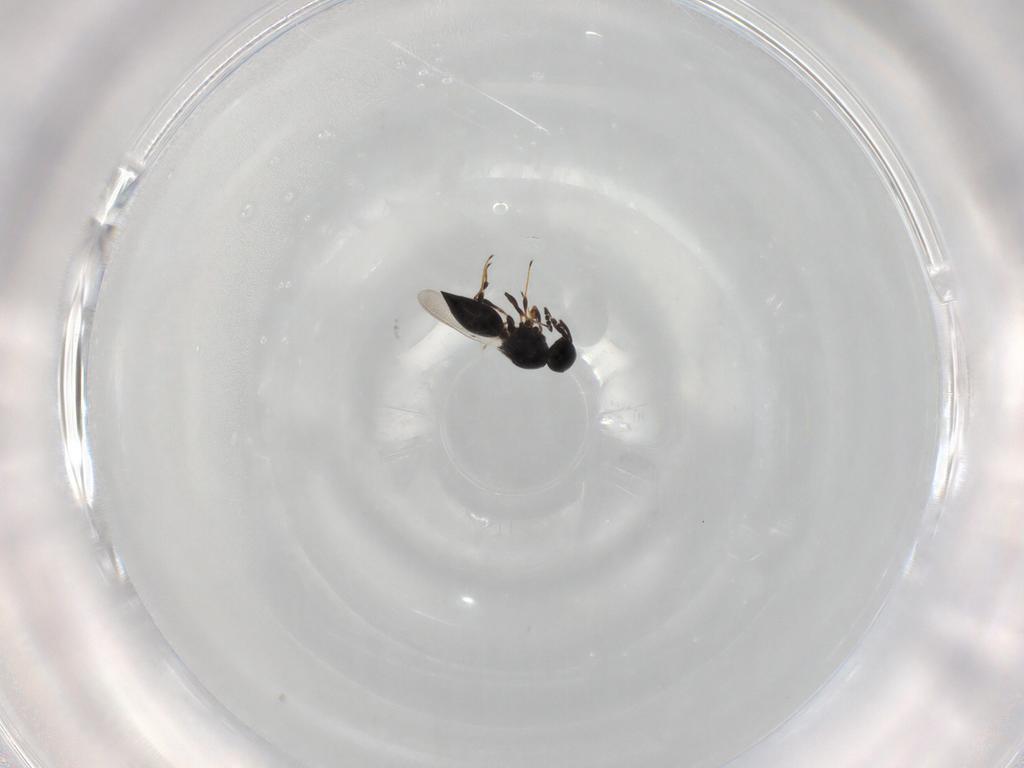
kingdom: Animalia
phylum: Arthropoda
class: Insecta
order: Hymenoptera
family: Platygastridae
